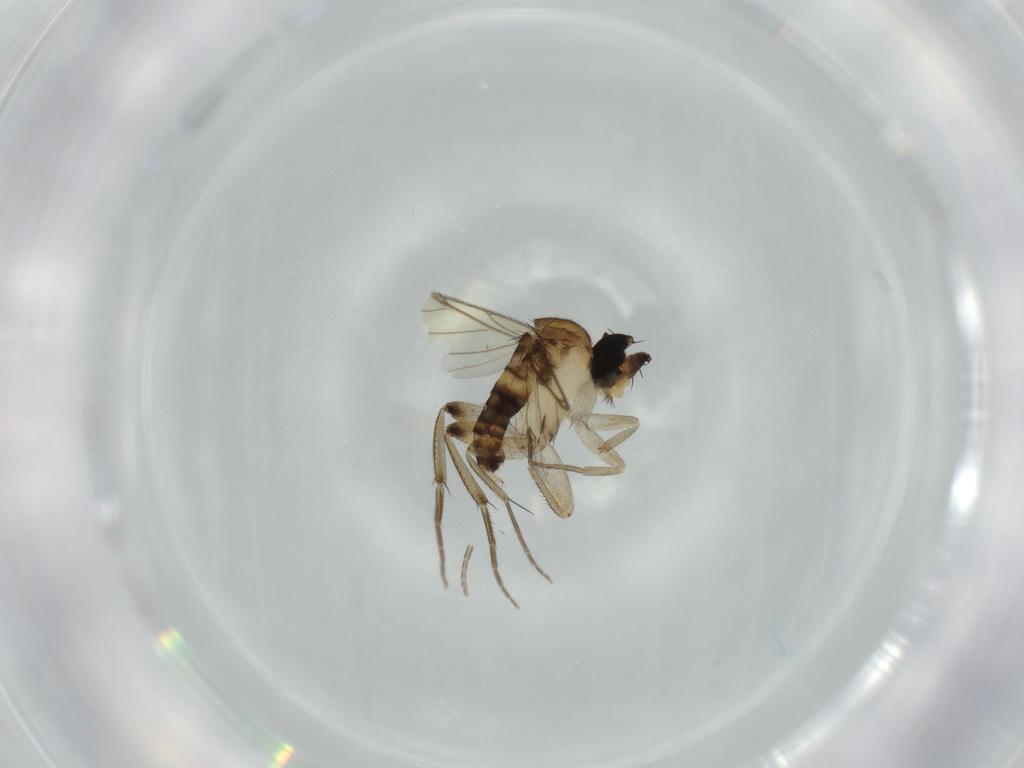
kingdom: Animalia
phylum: Arthropoda
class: Insecta
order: Diptera
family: Phoridae
